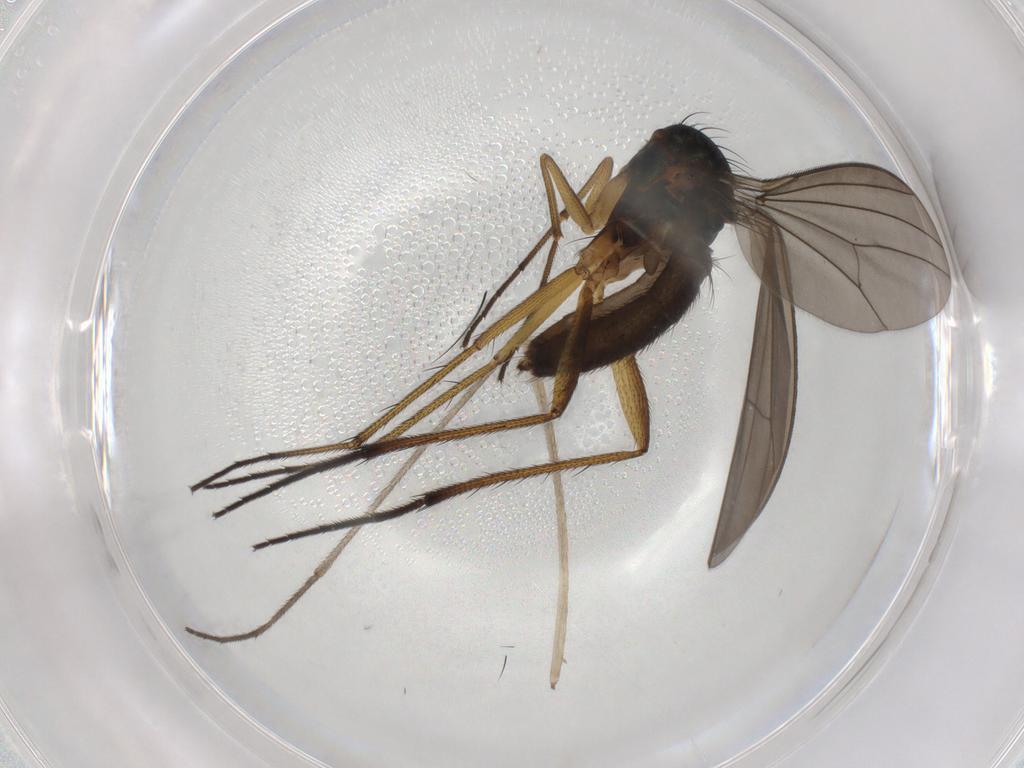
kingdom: Animalia
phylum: Arthropoda
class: Insecta
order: Diptera
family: Dolichopodidae
